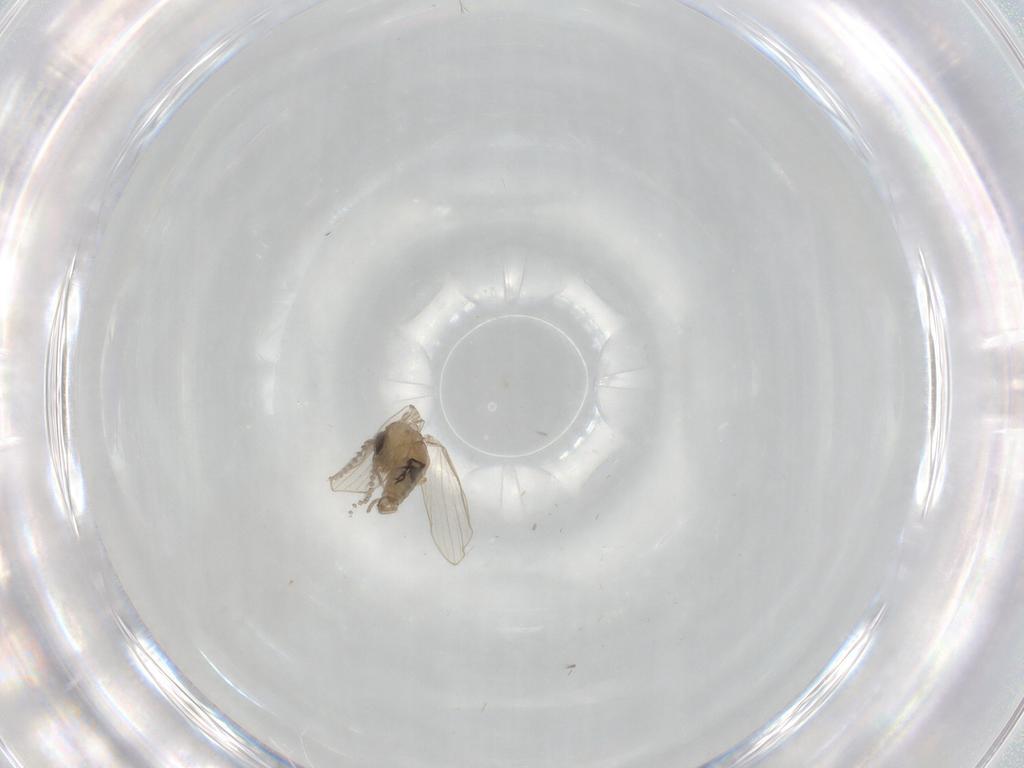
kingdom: Animalia
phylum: Arthropoda
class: Insecta
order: Diptera
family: Psychodidae
